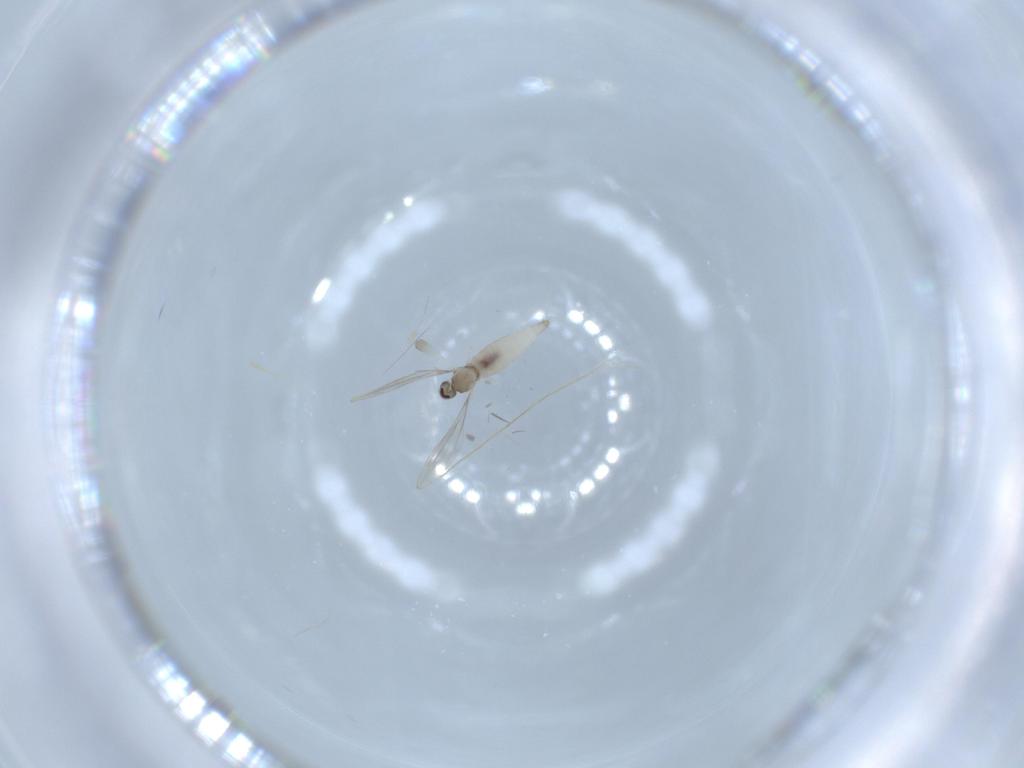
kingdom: Animalia
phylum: Arthropoda
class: Insecta
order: Diptera
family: Cecidomyiidae
